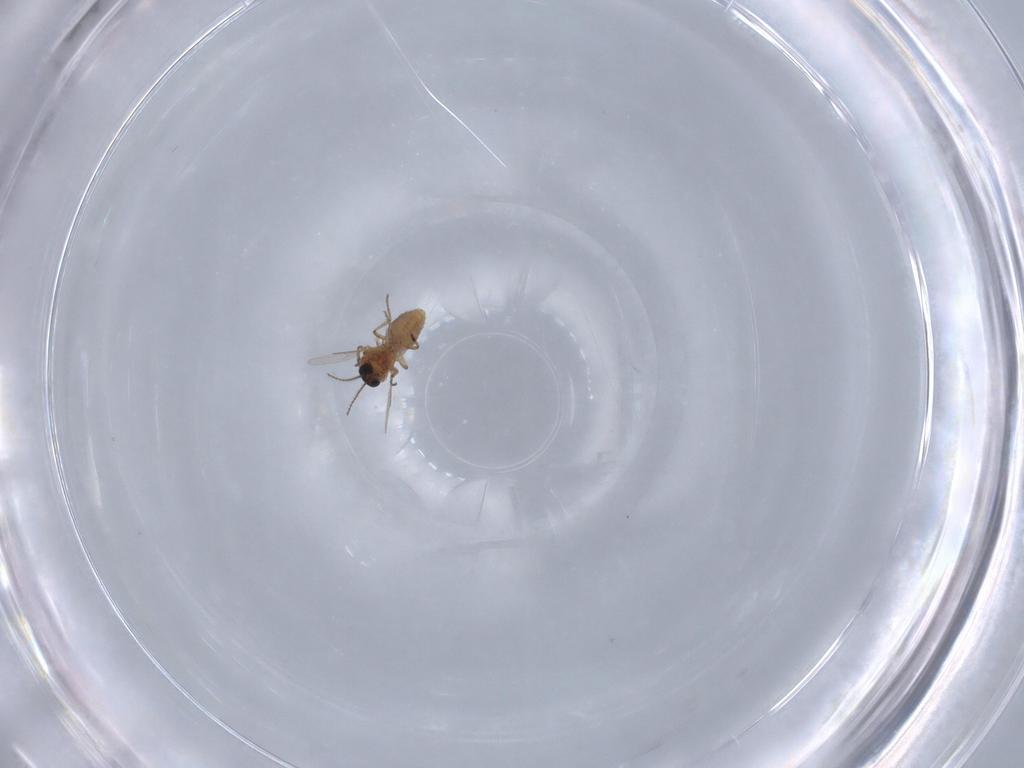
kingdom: Animalia
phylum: Arthropoda
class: Insecta
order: Diptera
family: Ceratopogonidae
